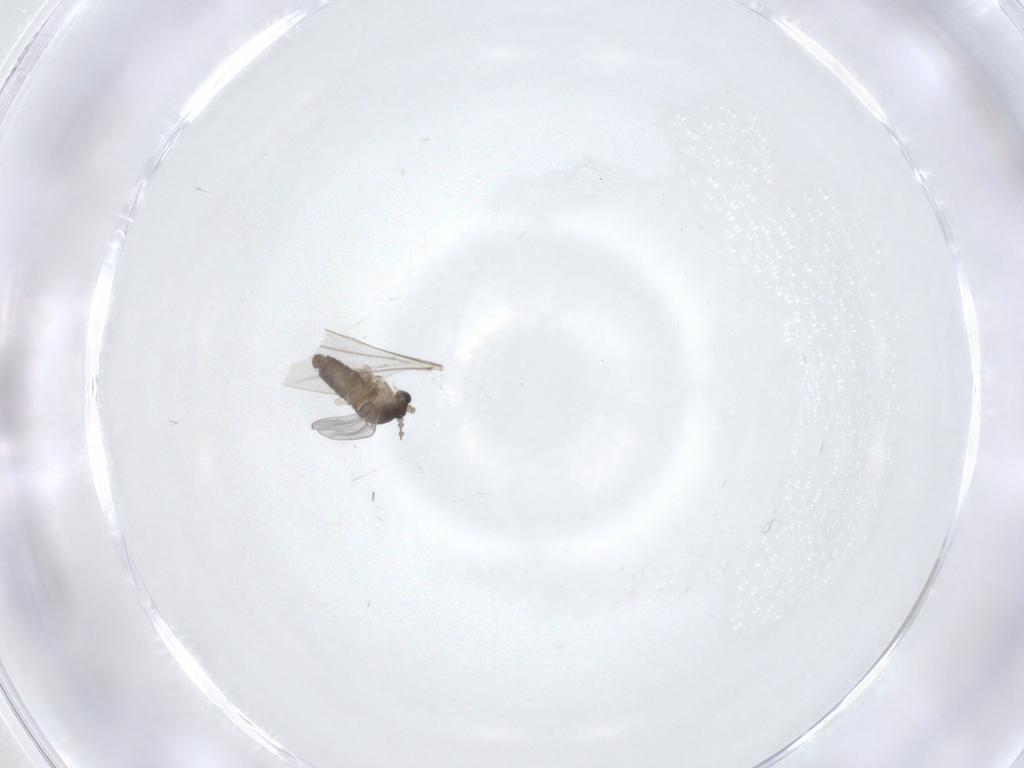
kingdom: Animalia
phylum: Arthropoda
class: Insecta
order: Diptera
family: Cecidomyiidae
